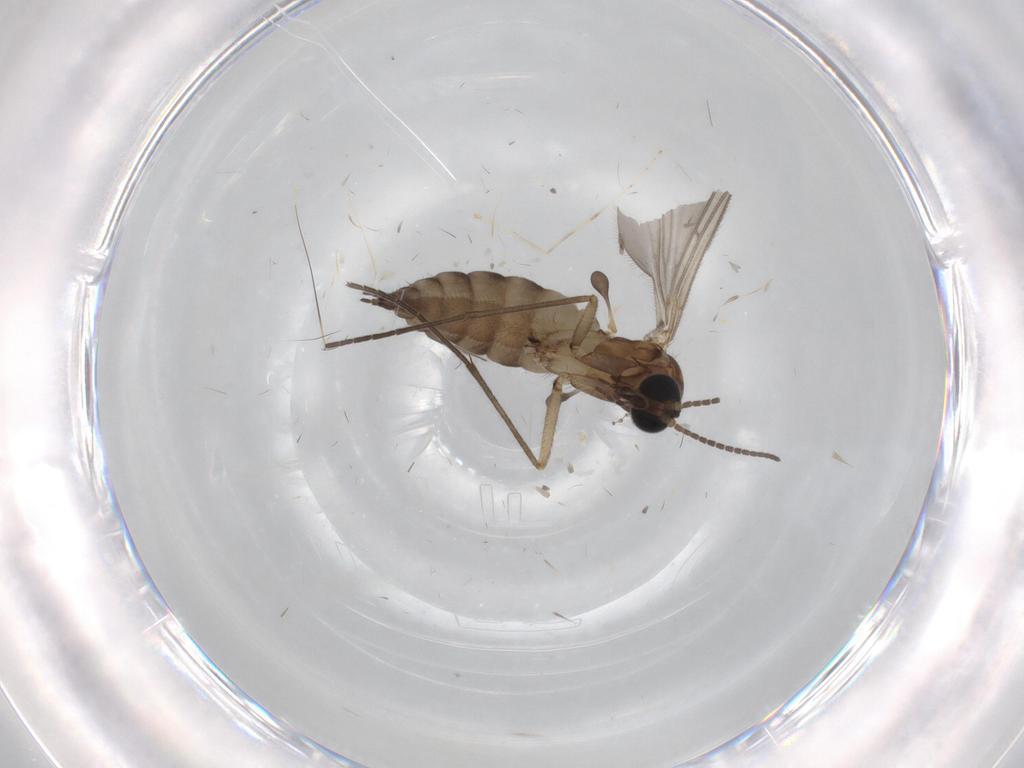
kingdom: Animalia
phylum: Arthropoda
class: Insecta
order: Diptera
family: Sciaridae
